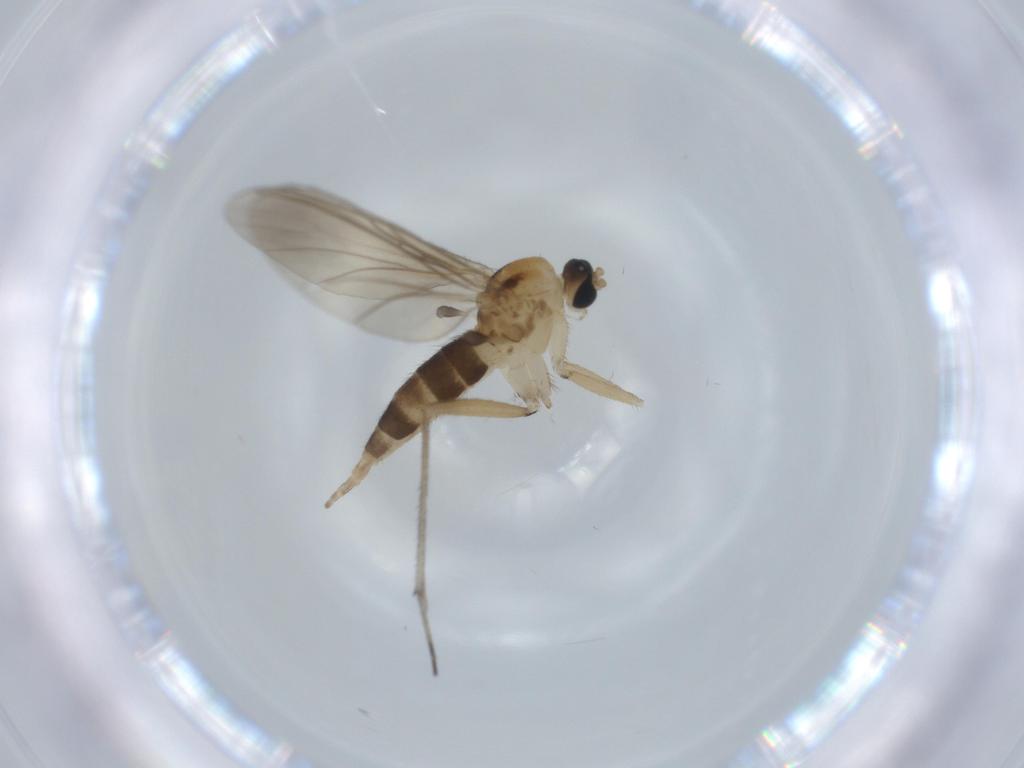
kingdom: Animalia
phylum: Arthropoda
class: Insecta
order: Diptera
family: Sciaridae
